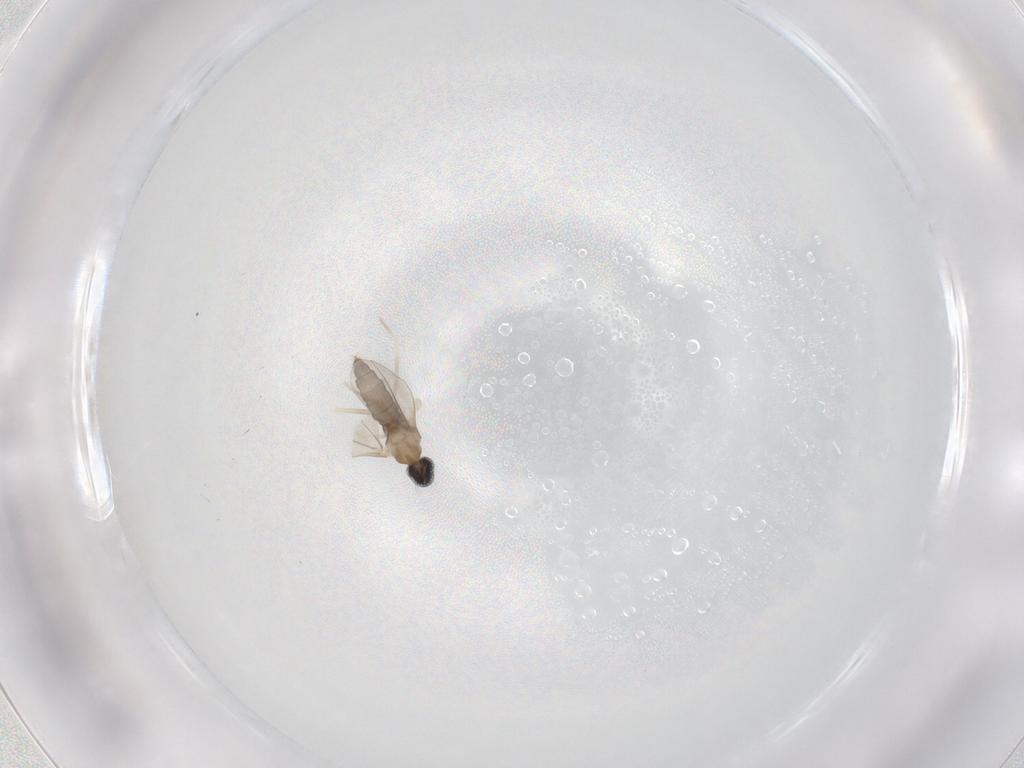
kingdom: Animalia
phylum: Arthropoda
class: Insecta
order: Diptera
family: Cecidomyiidae
